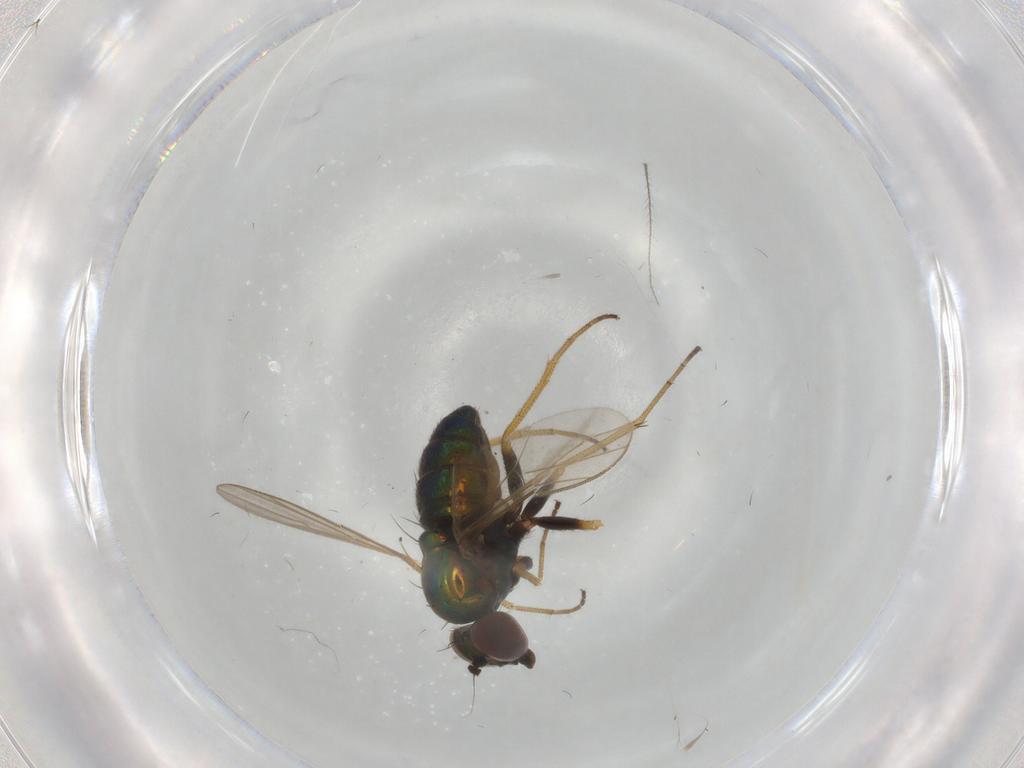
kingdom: Animalia
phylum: Arthropoda
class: Insecta
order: Diptera
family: Dolichopodidae
